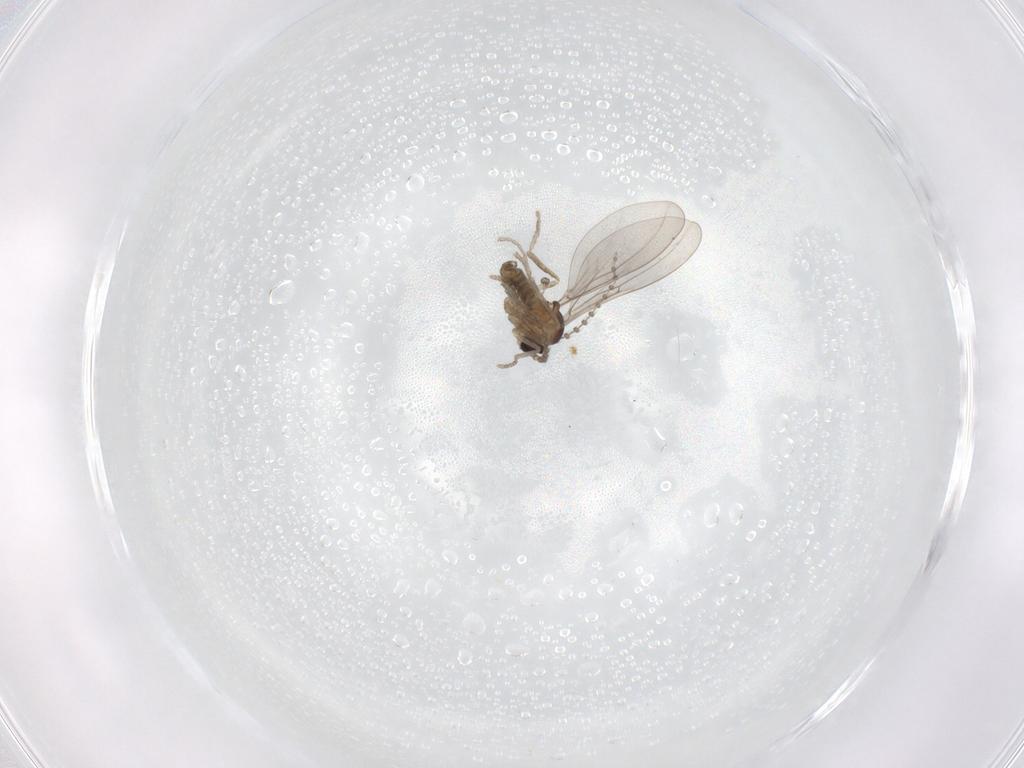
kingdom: Animalia
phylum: Arthropoda
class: Insecta
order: Diptera
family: Cecidomyiidae
